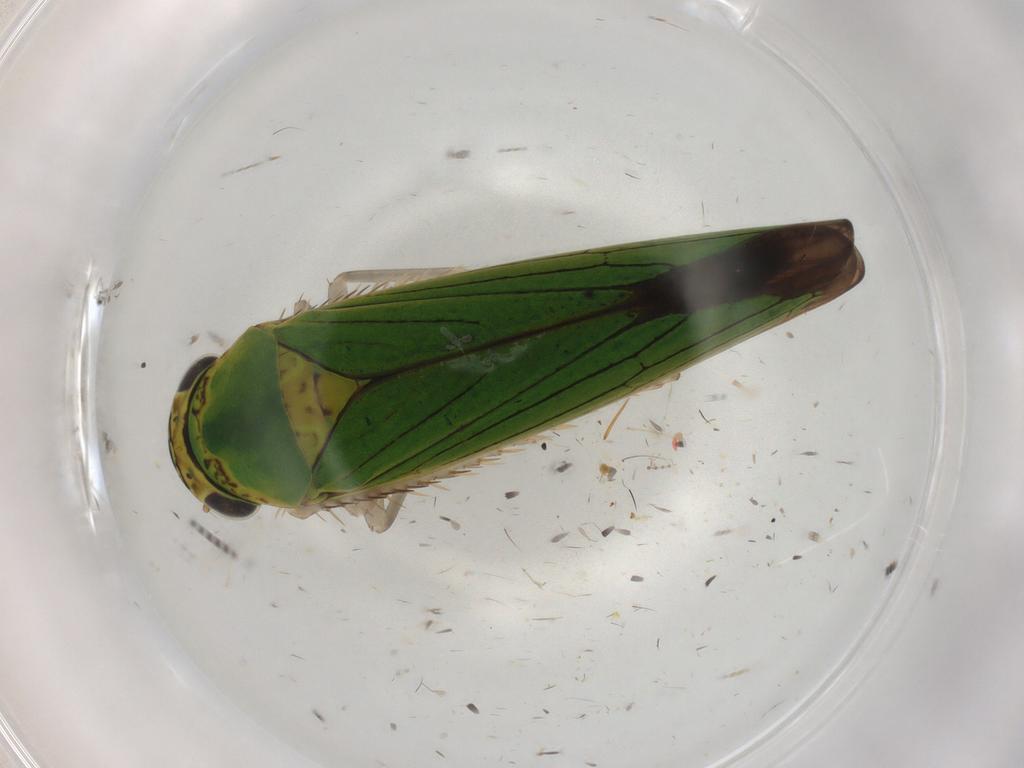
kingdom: Animalia
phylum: Arthropoda
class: Insecta
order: Hemiptera
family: Cicadellidae
